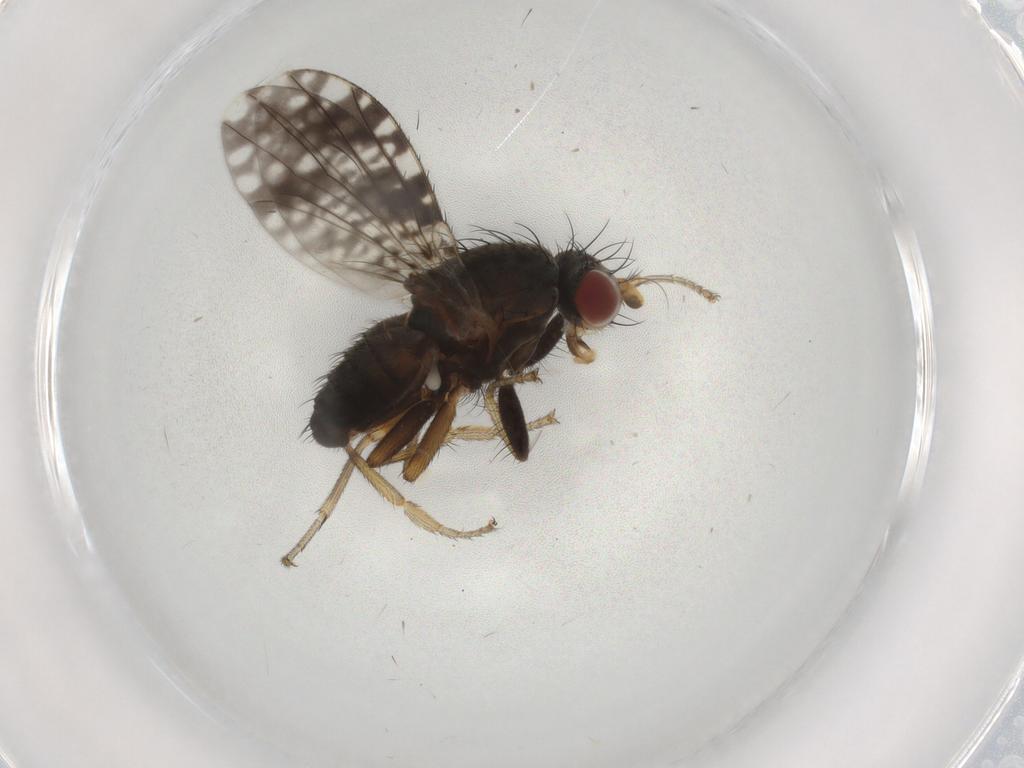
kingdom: Animalia
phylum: Arthropoda
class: Insecta
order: Diptera
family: Tephritidae
